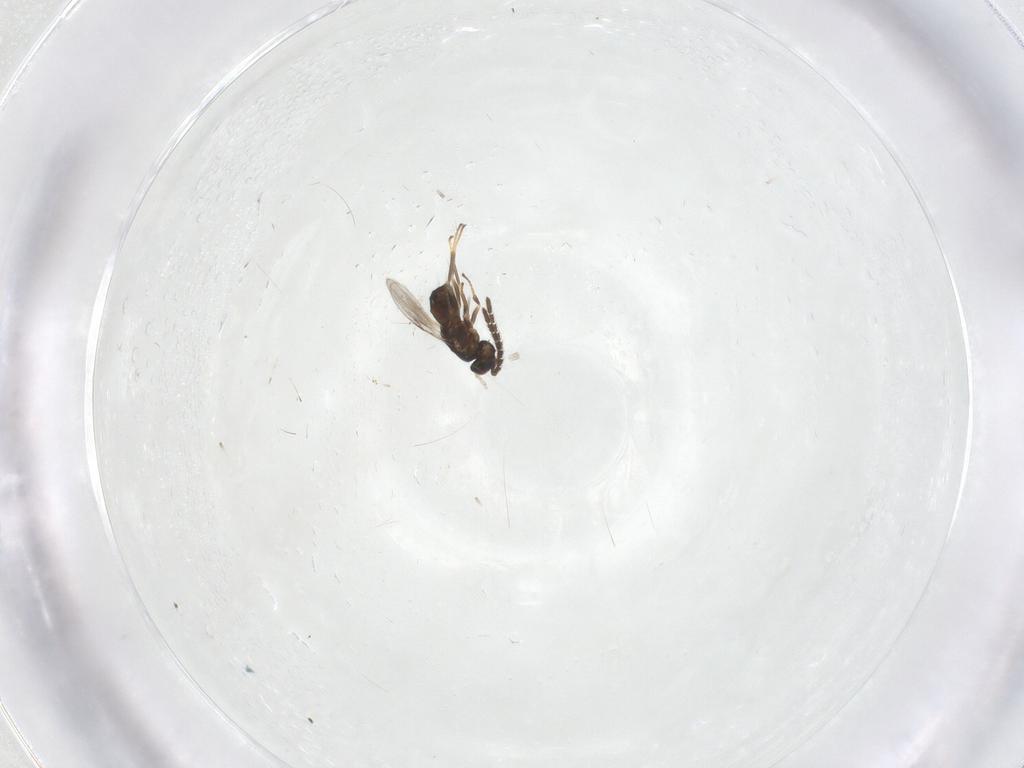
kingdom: Animalia
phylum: Arthropoda
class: Insecta
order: Hymenoptera
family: Encyrtidae
